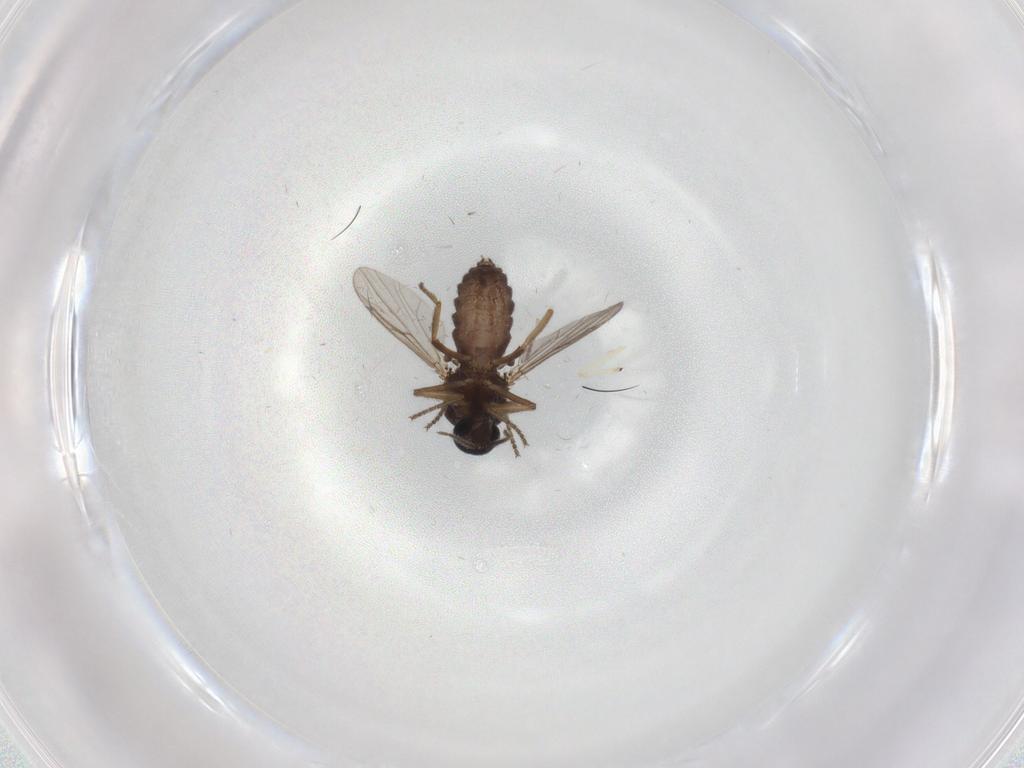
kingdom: Animalia
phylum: Arthropoda
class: Insecta
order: Diptera
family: Ceratopogonidae
